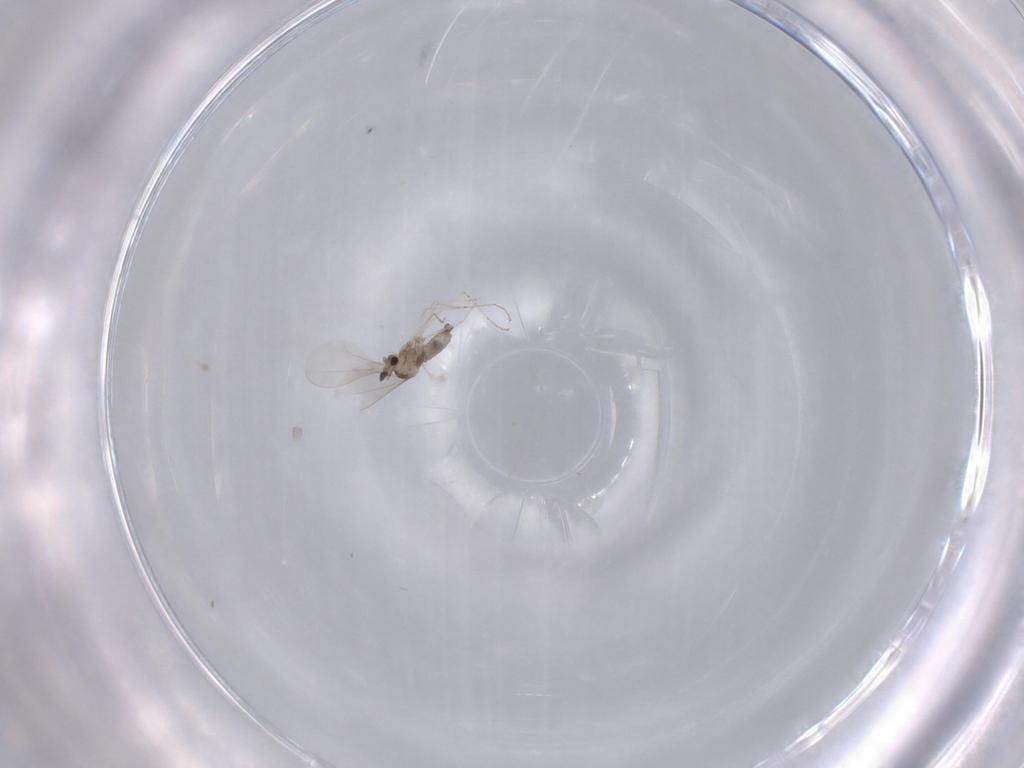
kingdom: Animalia
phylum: Arthropoda
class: Insecta
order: Diptera
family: Cecidomyiidae
